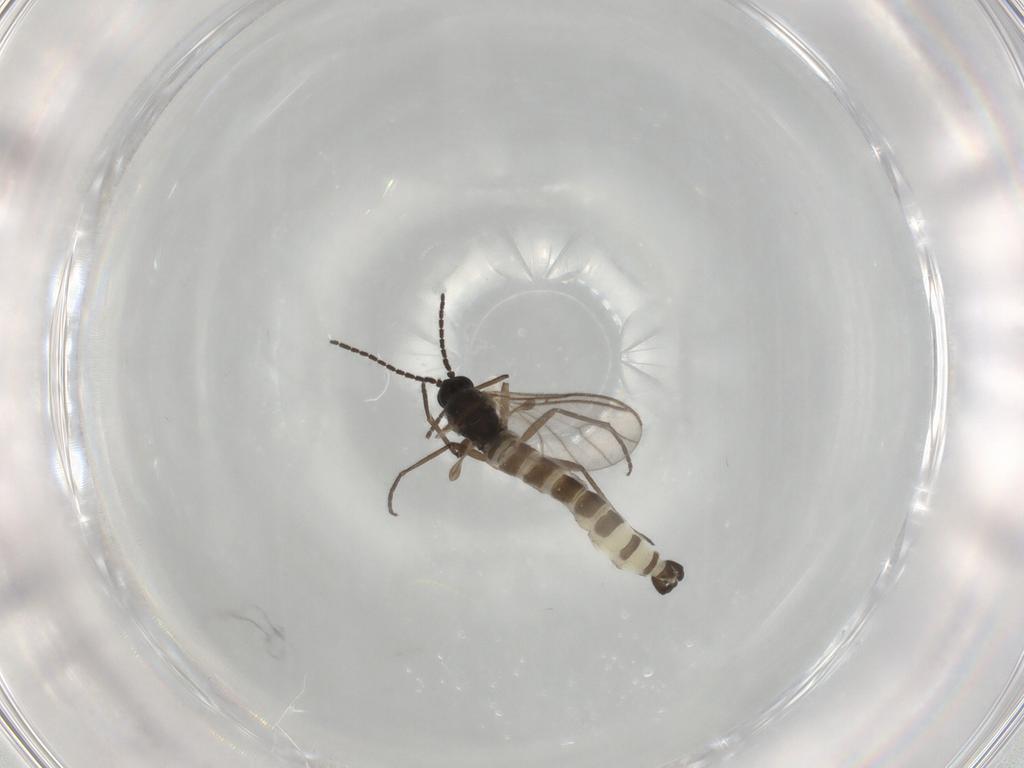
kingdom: Animalia
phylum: Arthropoda
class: Insecta
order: Diptera
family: Sciaridae
